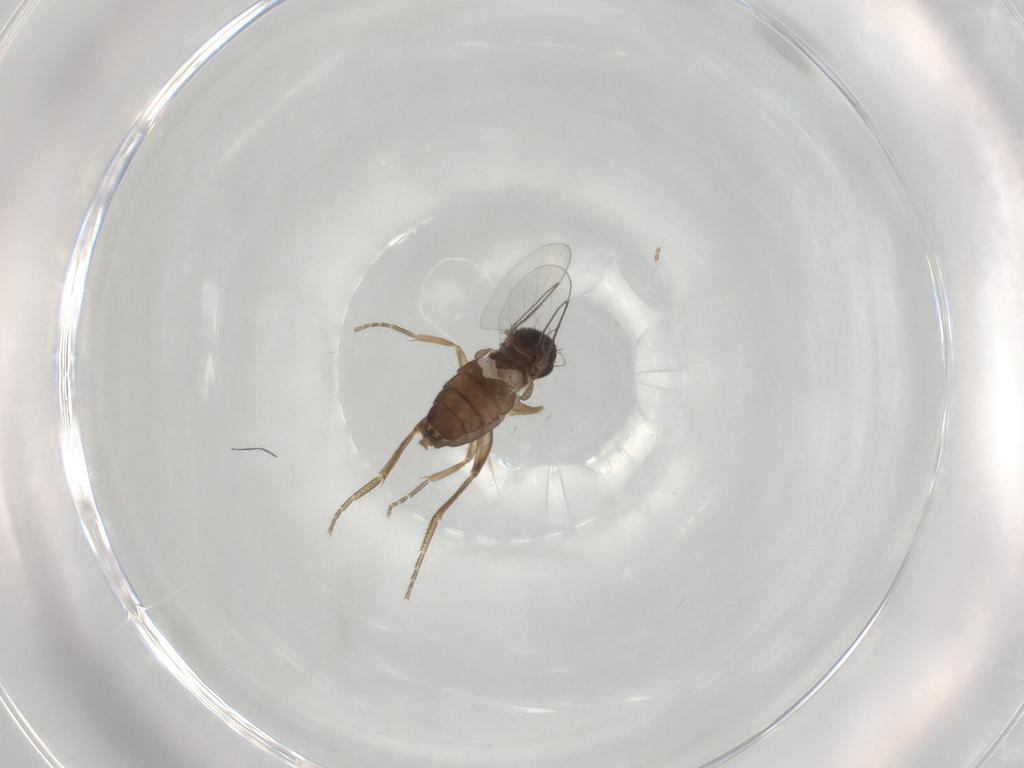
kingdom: Animalia
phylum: Arthropoda
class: Insecta
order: Diptera
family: Phoridae
